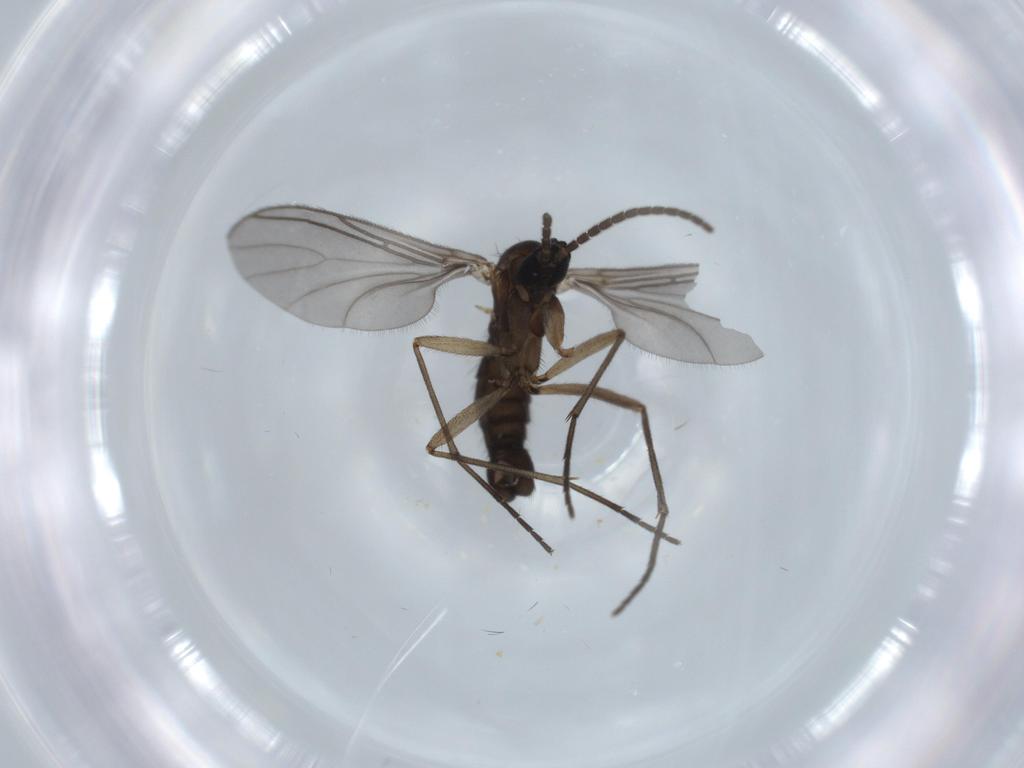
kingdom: Animalia
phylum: Arthropoda
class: Insecta
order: Diptera
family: Sciaridae
